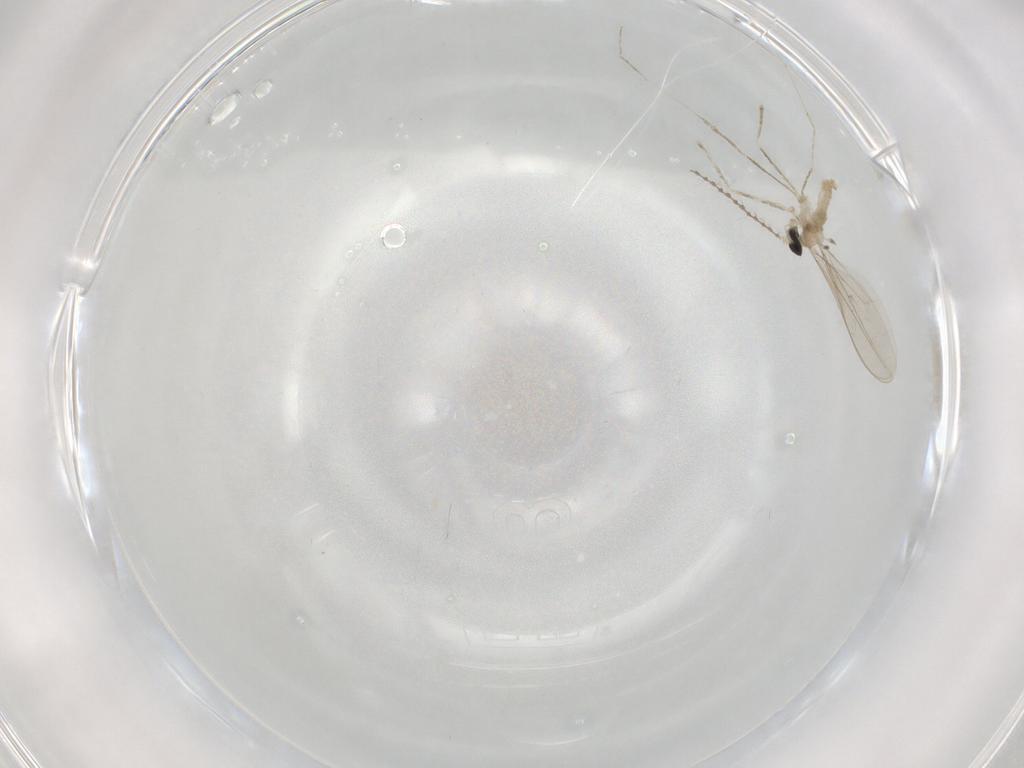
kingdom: Animalia
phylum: Arthropoda
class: Insecta
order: Diptera
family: Cecidomyiidae
